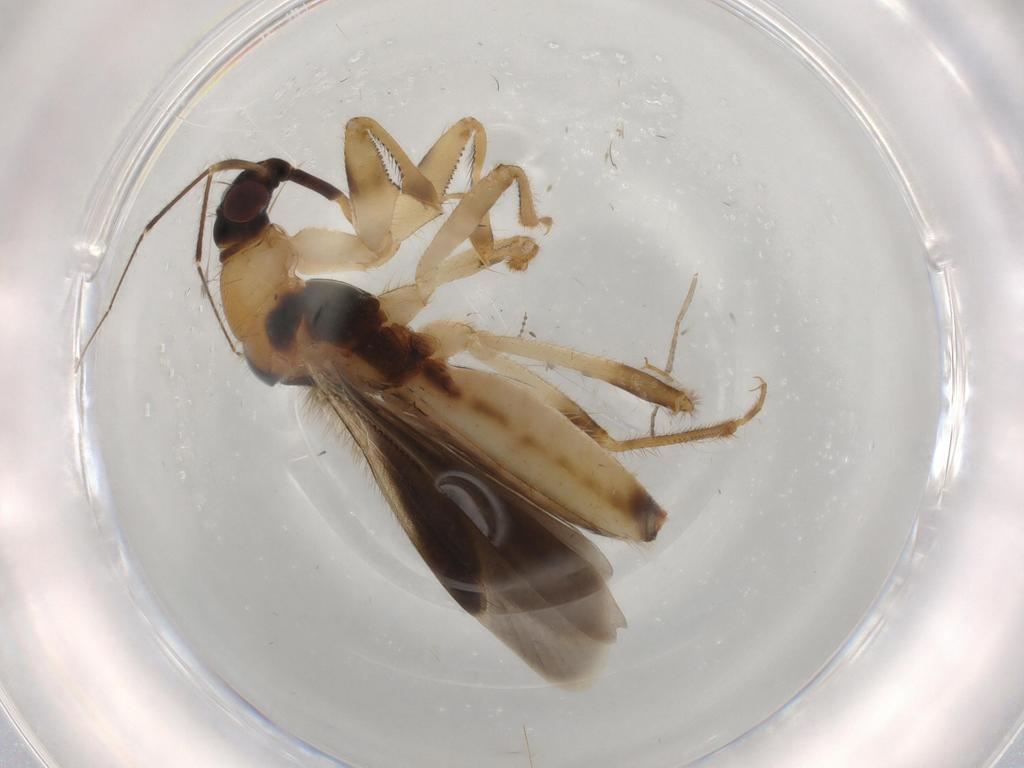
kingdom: Animalia
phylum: Arthropoda
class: Insecta
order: Hemiptera
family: Nabidae
